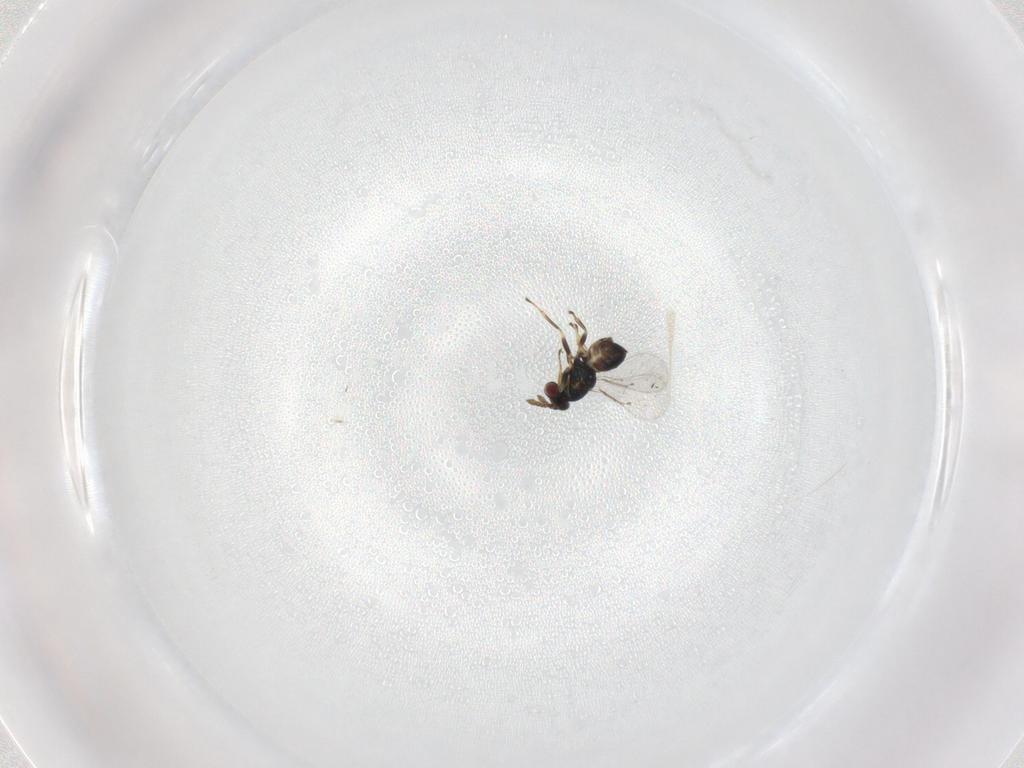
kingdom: Animalia
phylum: Arthropoda
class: Insecta
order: Hymenoptera
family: Eulophidae
